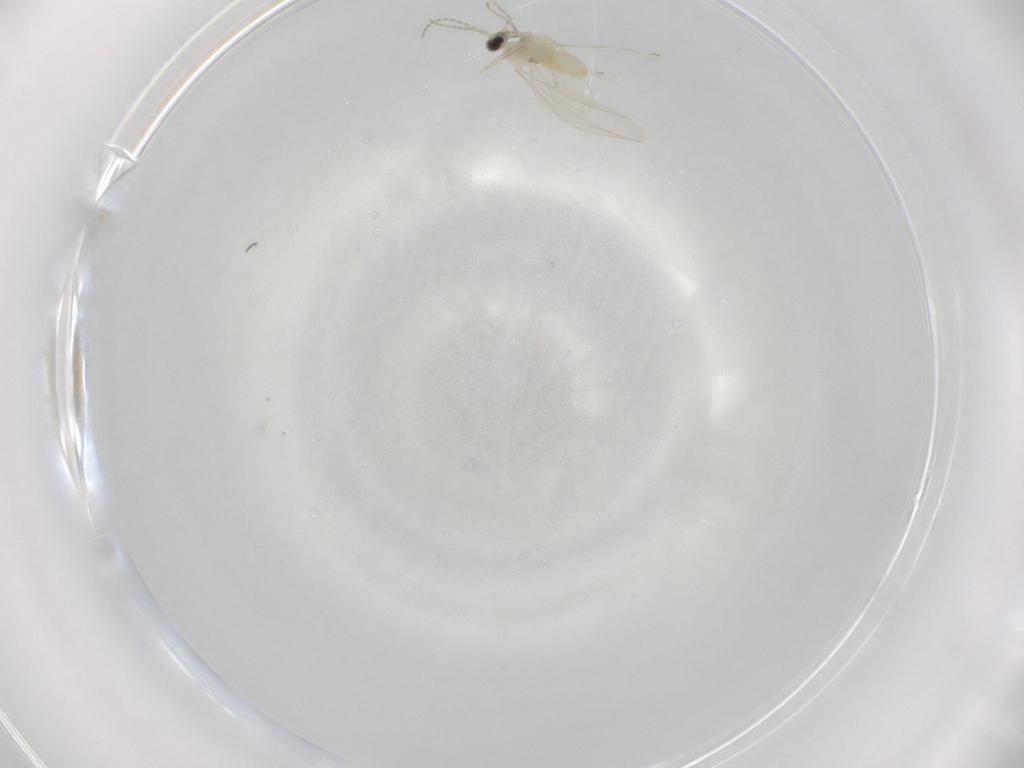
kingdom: Animalia
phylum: Arthropoda
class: Insecta
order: Diptera
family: Cecidomyiidae
